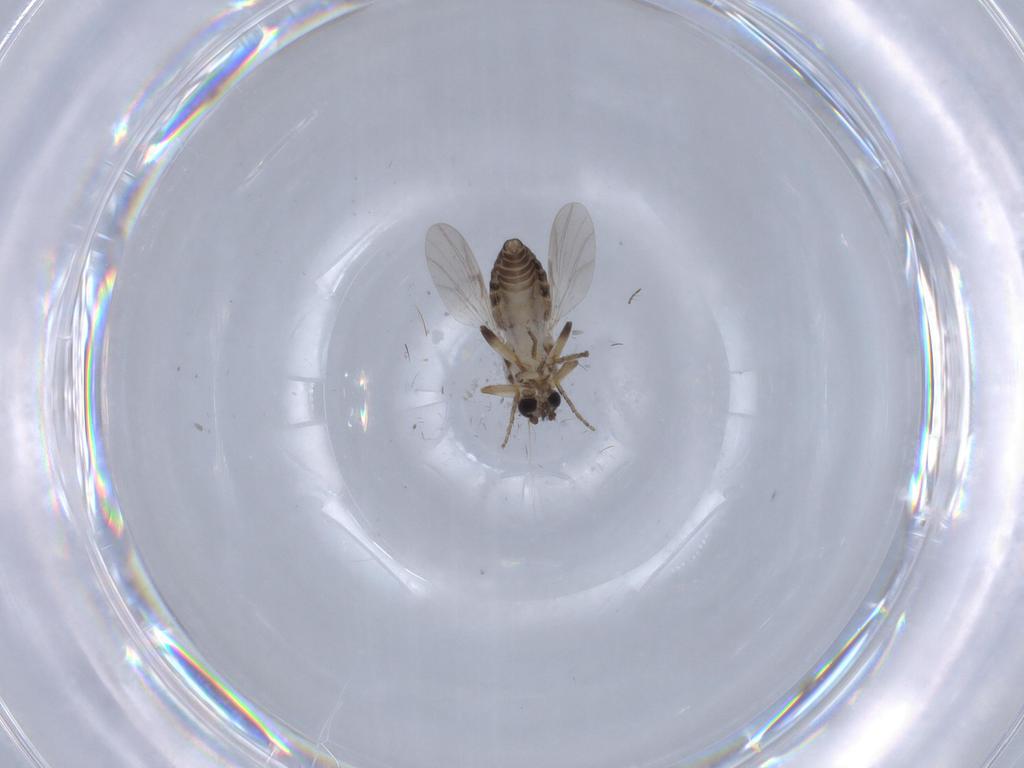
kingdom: Animalia
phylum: Arthropoda
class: Insecta
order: Diptera
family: Ceratopogonidae
